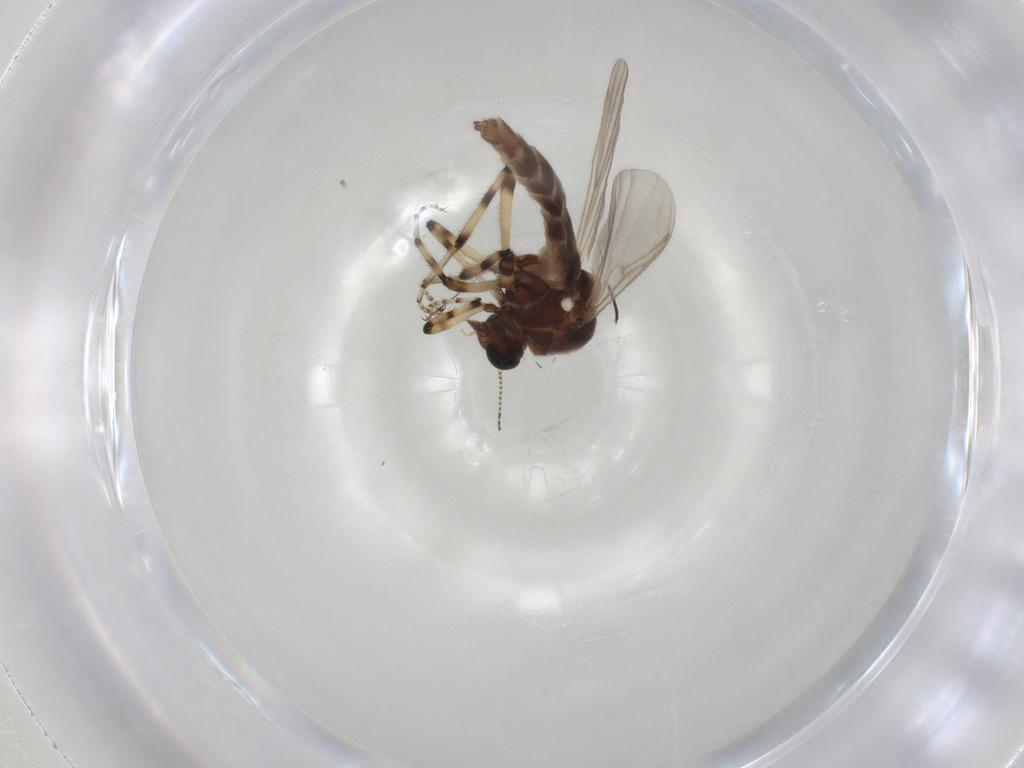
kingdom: Animalia
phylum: Arthropoda
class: Insecta
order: Diptera
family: Ceratopogonidae
